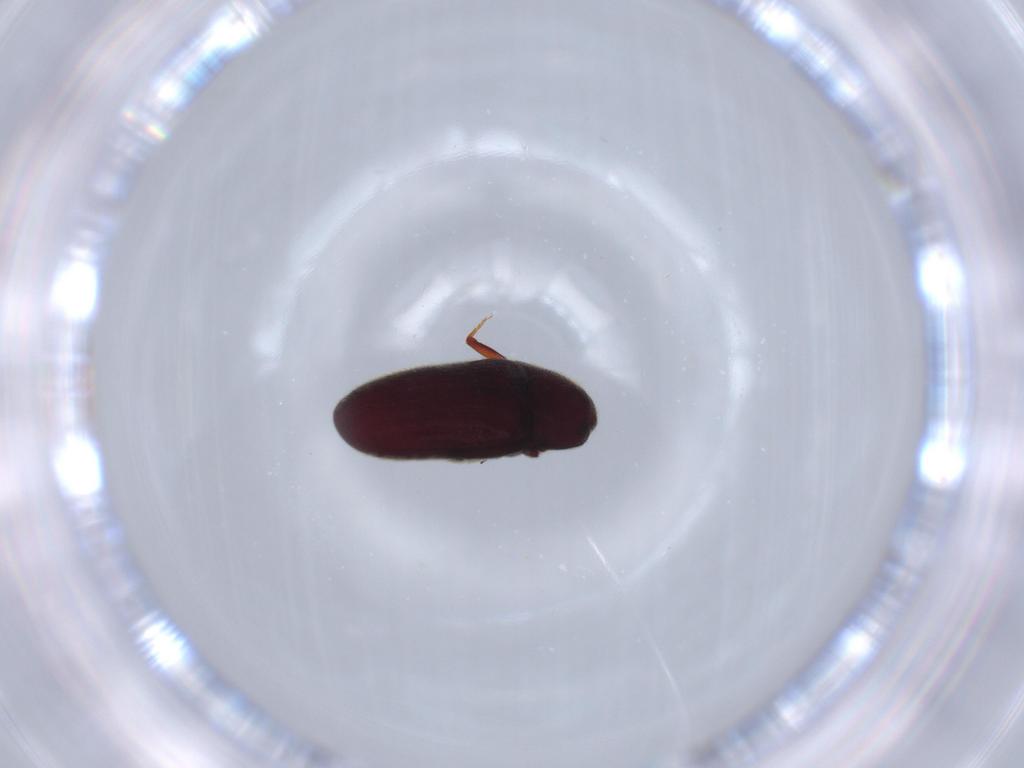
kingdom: Animalia
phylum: Arthropoda
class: Insecta
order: Coleoptera
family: Throscidae
